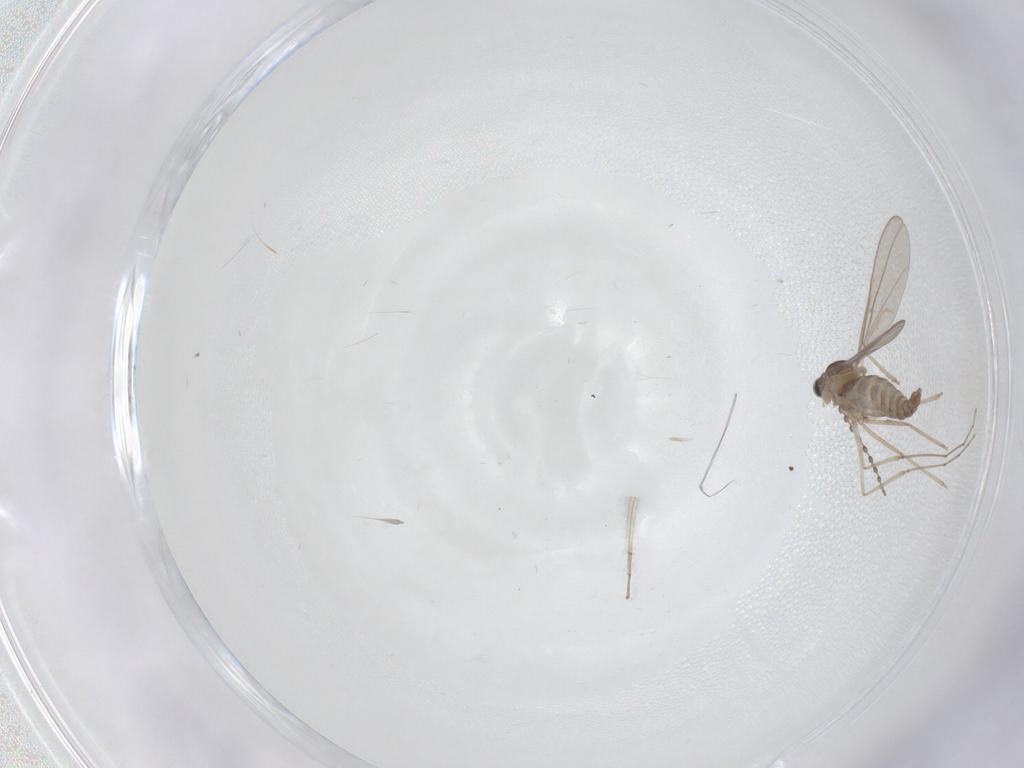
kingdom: Animalia
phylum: Arthropoda
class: Insecta
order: Diptera
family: Cecidomyiidae
